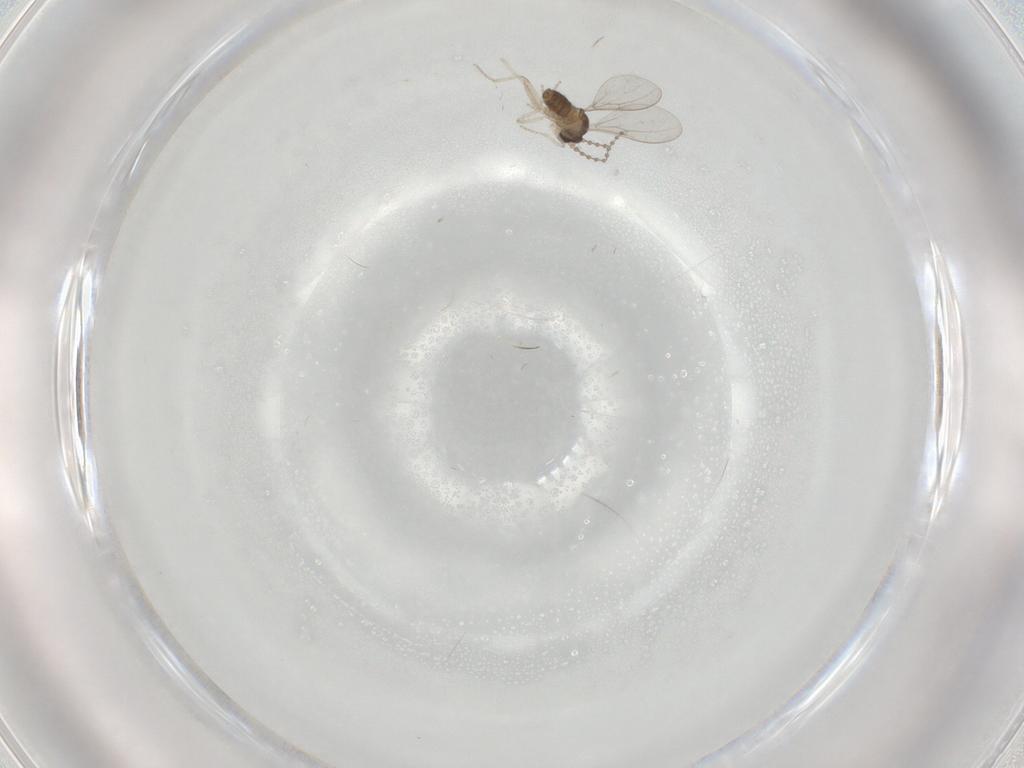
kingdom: Animalia
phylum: Arthropoda
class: Insecta
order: Diptera
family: Cecidomyiidae
